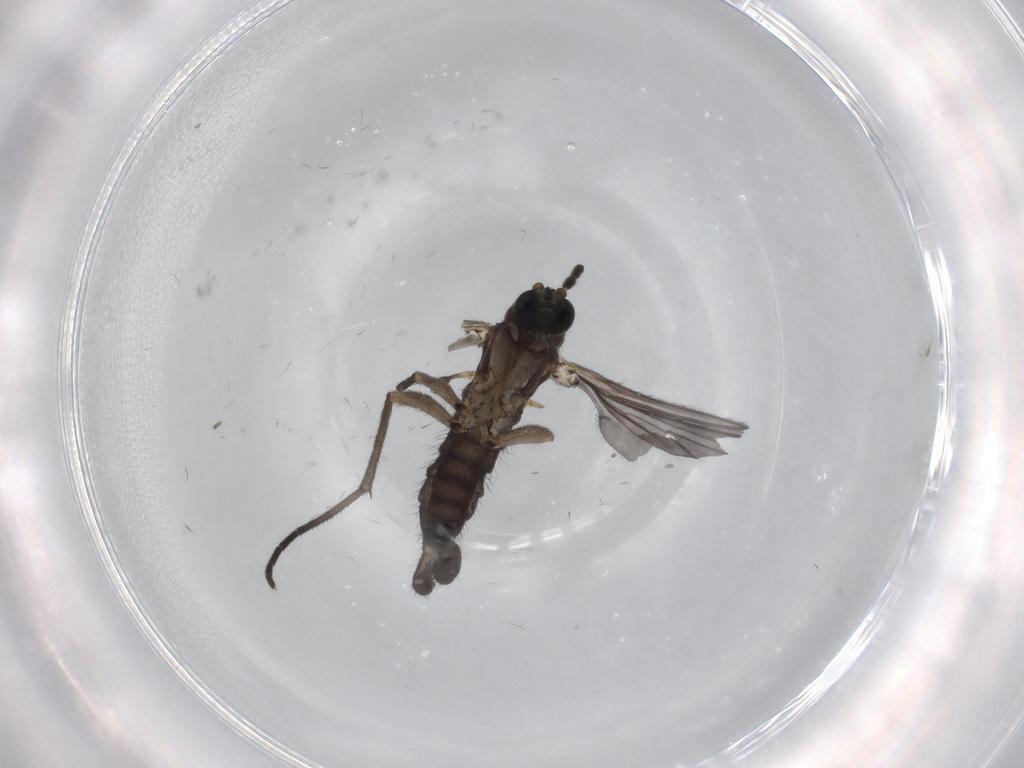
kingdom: Animalia
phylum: Arthropoda
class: Insecta
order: Diptera
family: Sciaridae
